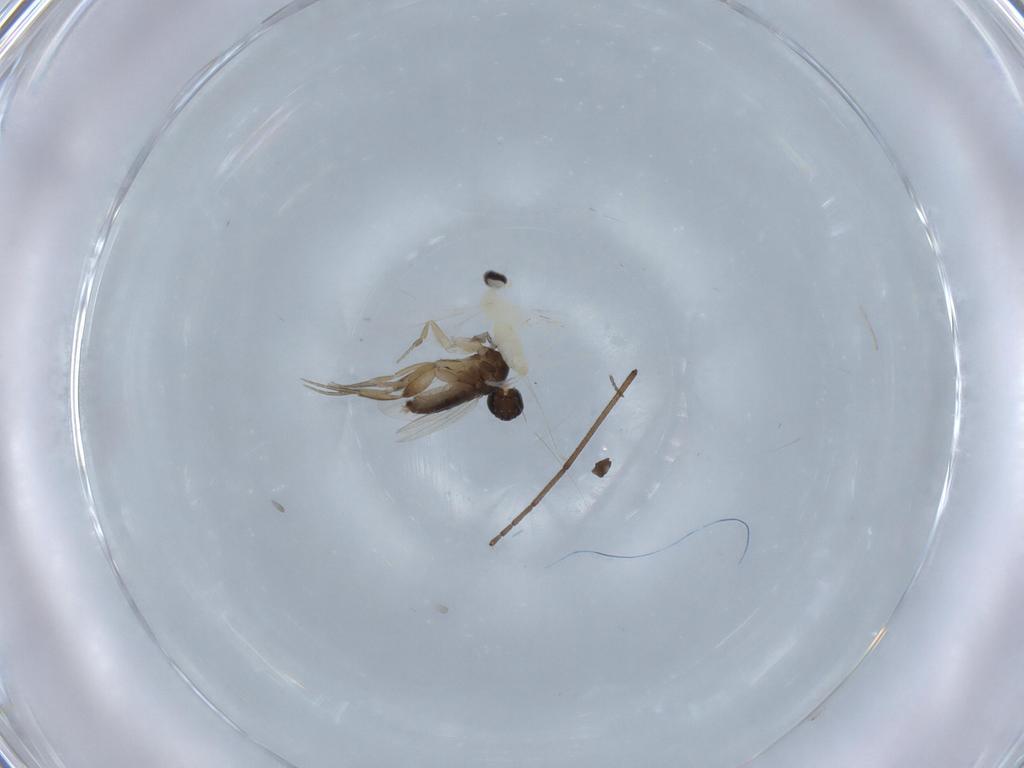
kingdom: Animalia
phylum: Arthropoda
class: Insecta
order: Diptera
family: Phoridae
